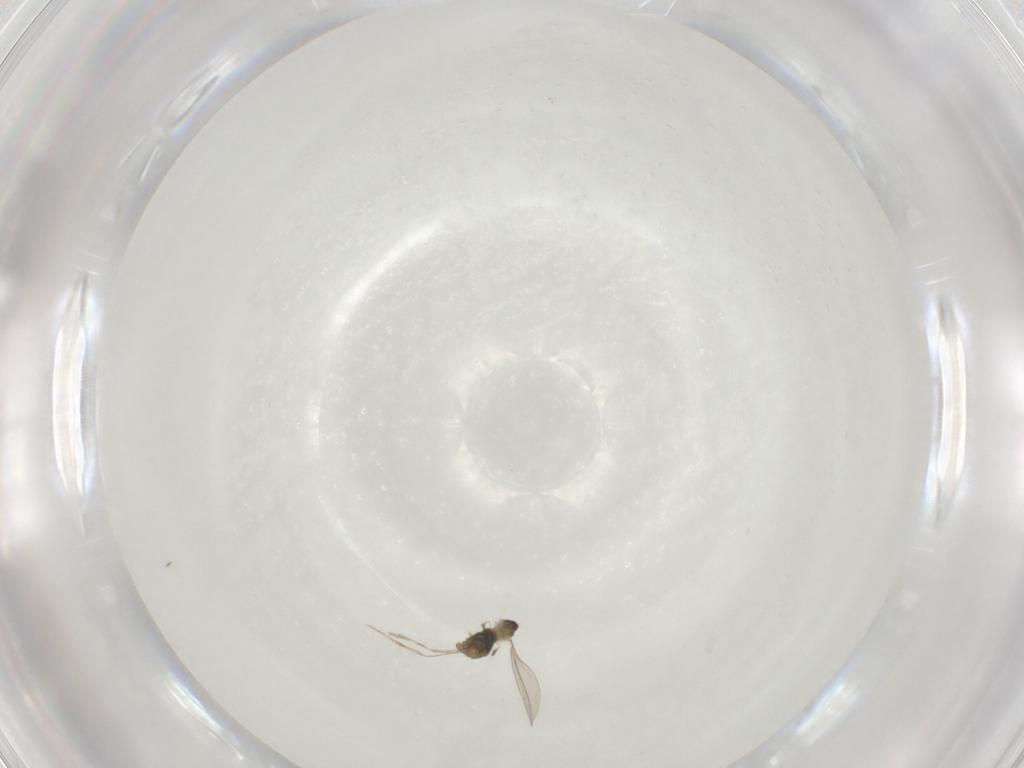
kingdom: Animalia
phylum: Arthropoda
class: Insecta
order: Diptera
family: Cecidomyiidae
